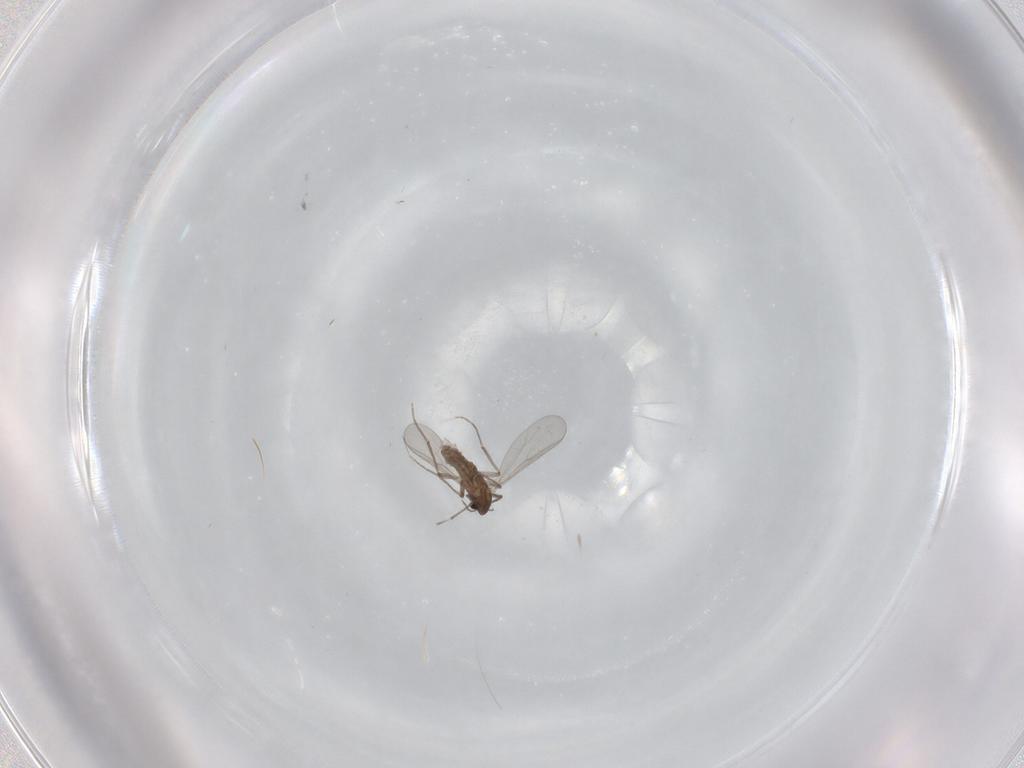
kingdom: Animalia
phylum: Arthropoda
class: Insecta
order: Diptera
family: Chironomidae
